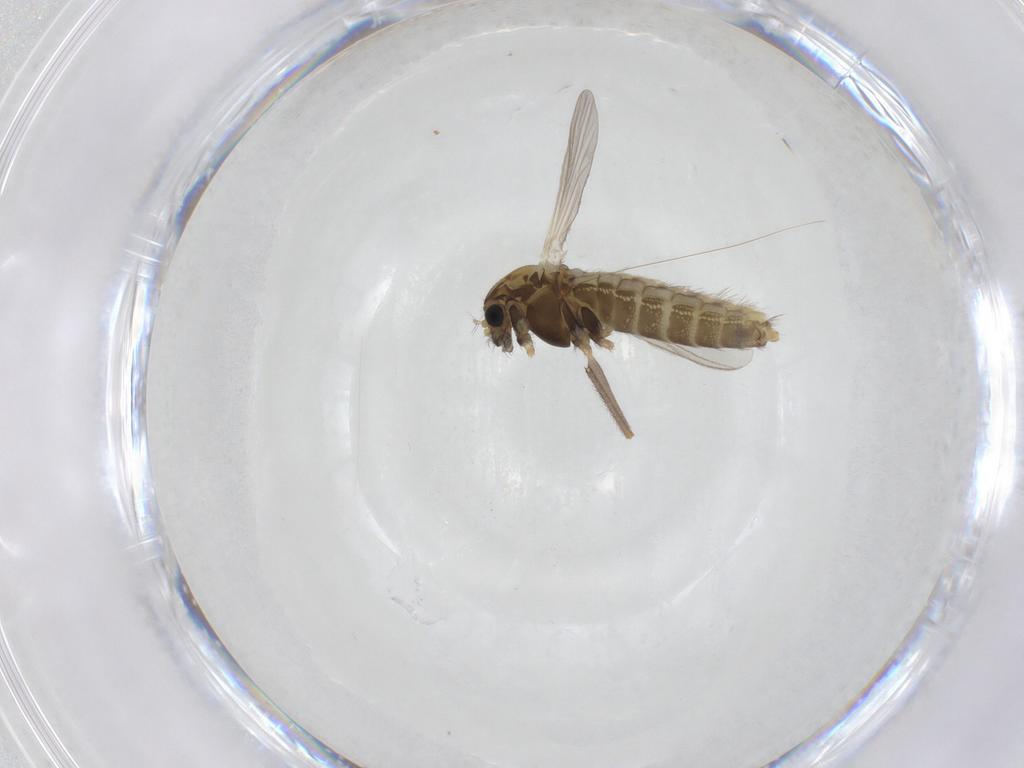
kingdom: Animalia
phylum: Arthropoda
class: Insecta
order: Diptera
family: Chironomidae
